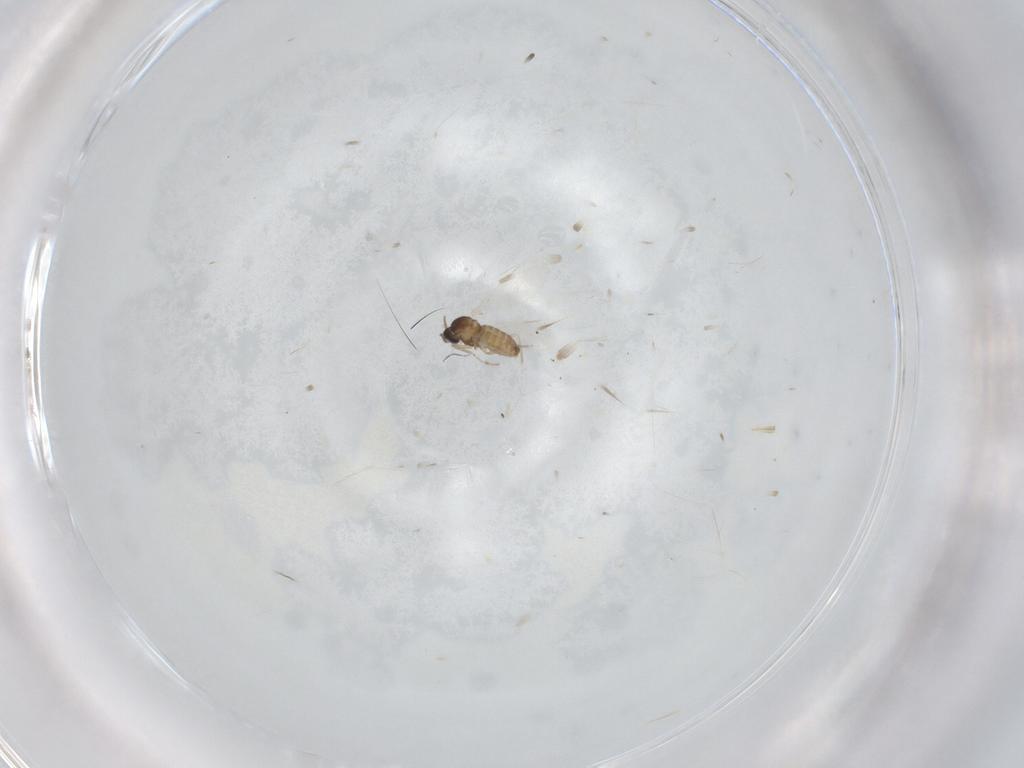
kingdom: Animalia
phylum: Arthropoda
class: Insecta
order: Diptera
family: Cecidomyiidae
